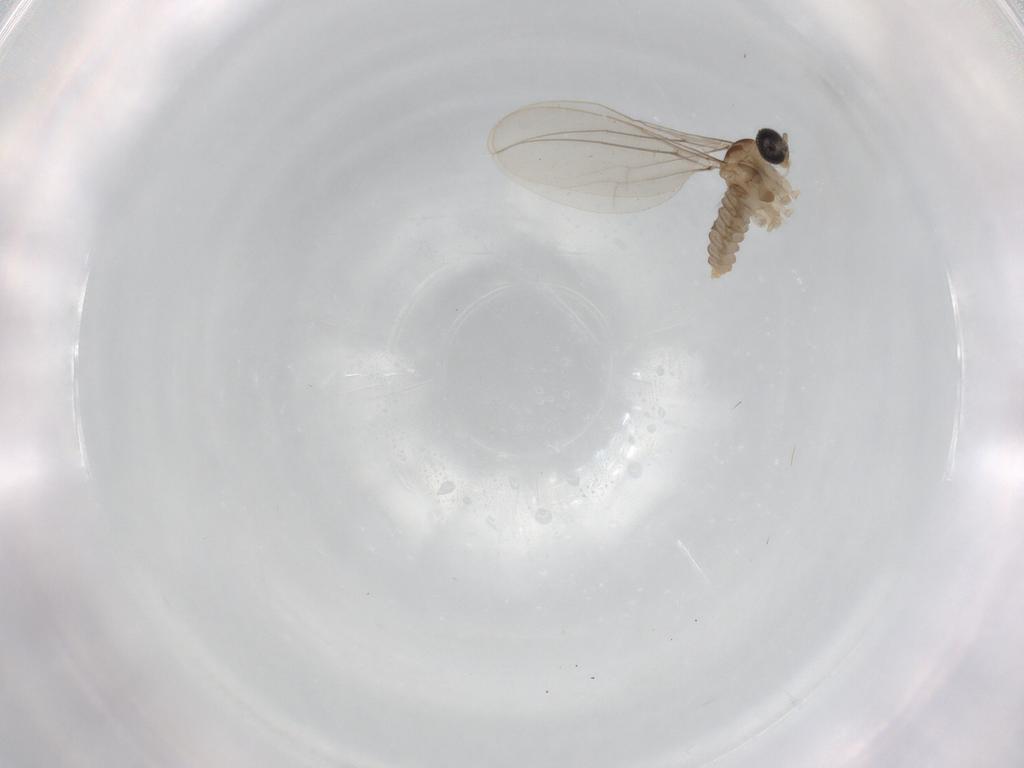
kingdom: Animalia
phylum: Arthropoda
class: Insecta
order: Diptera
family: Cecidomyiidae
